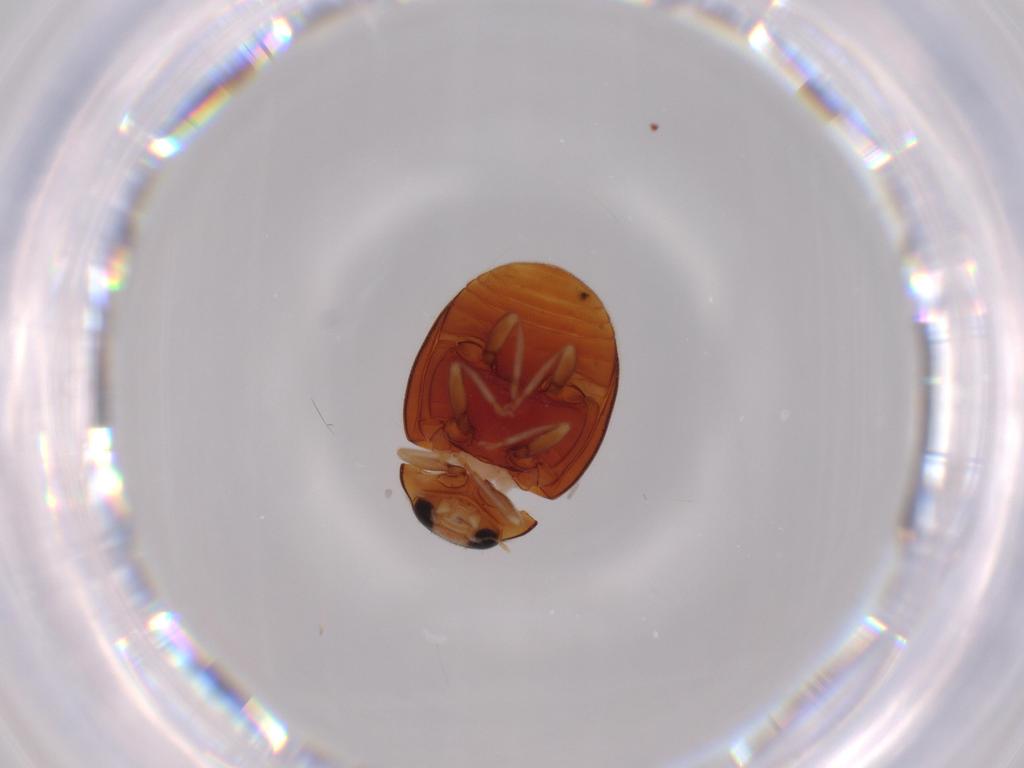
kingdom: Animalia
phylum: Arthropoda
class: Insecta
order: Coleoptera
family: Coccinellidae
